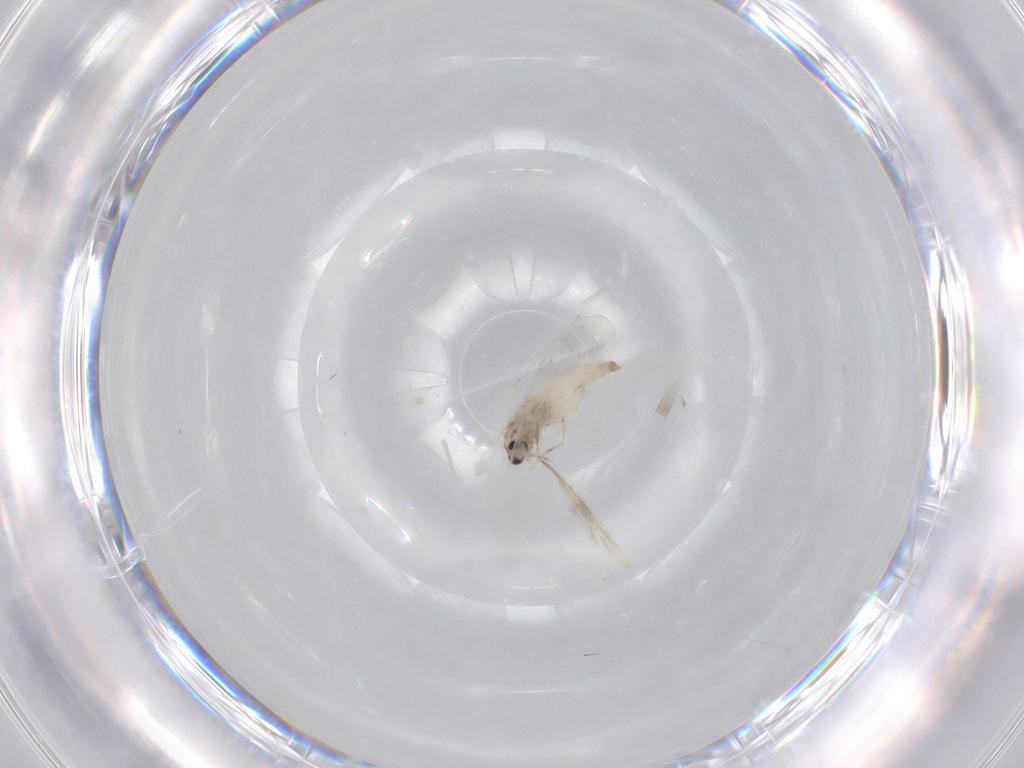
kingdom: Animalia
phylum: Arthropoda
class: Insecta
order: Diptera
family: Cecidomyiidae
